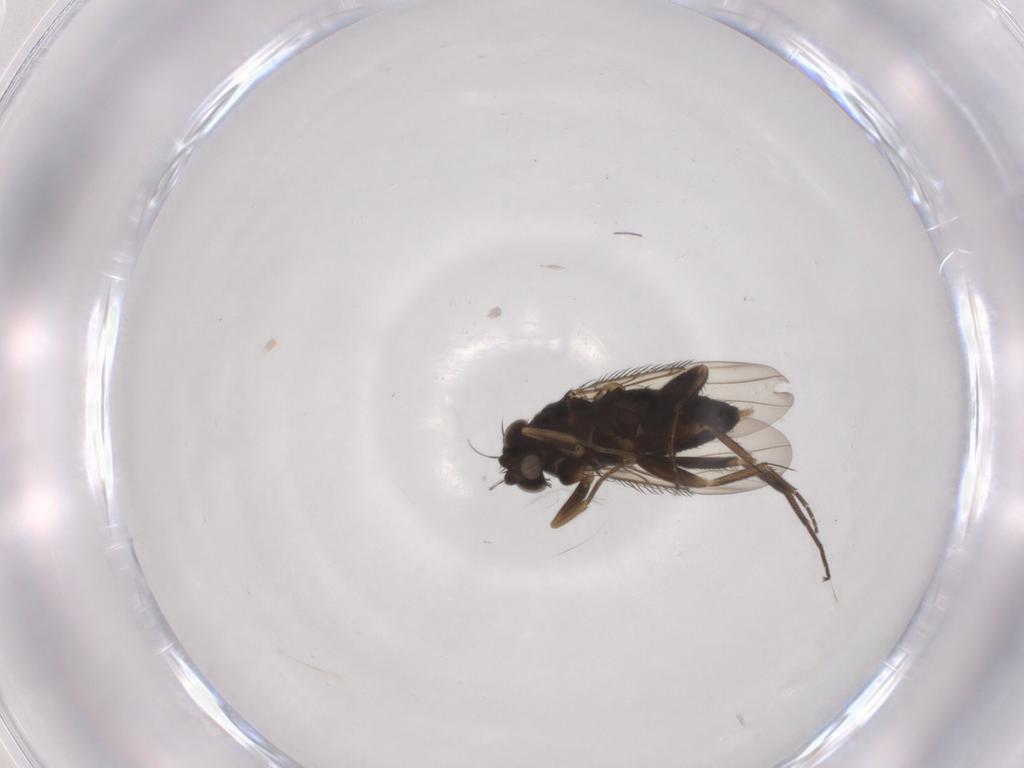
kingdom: Animalia
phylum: Arthropoda
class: Insecta
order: Diptera
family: Phoridae
